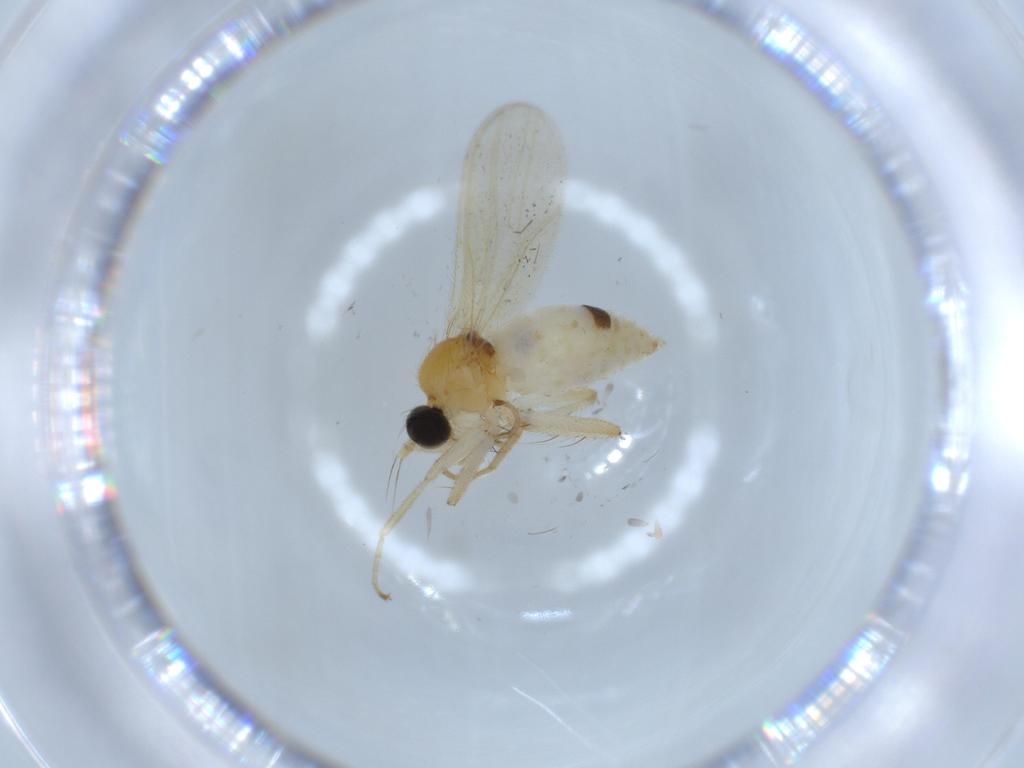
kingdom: Animalia
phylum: Arthropoda
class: Insecta
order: Diptera
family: Hybotidae
